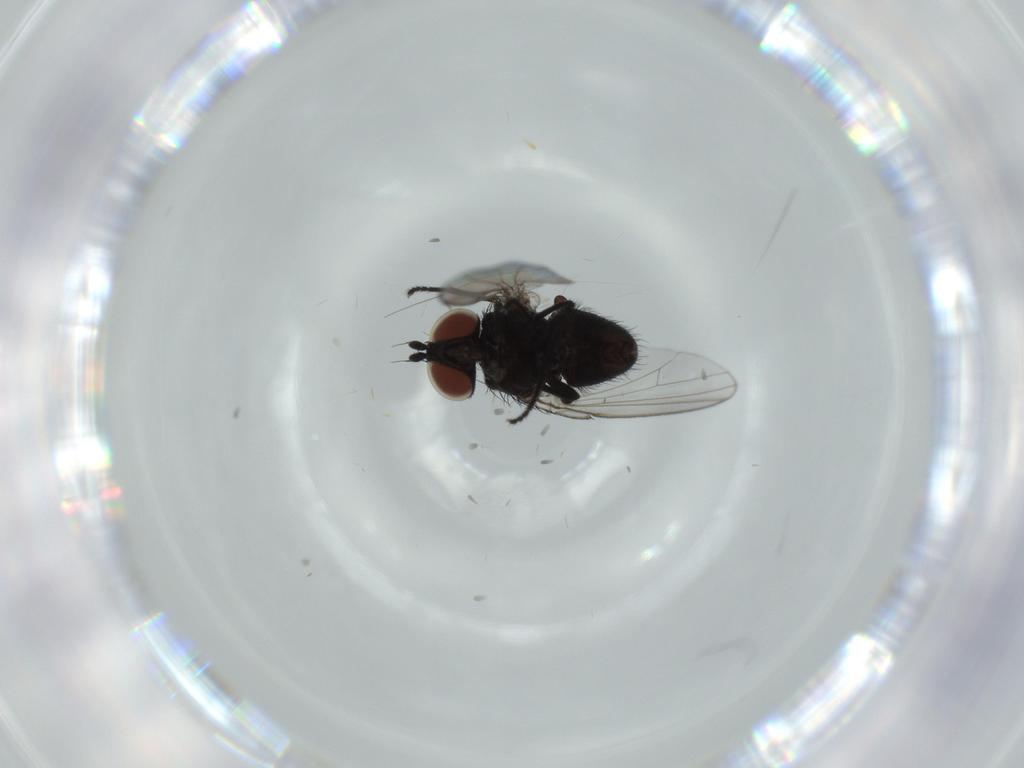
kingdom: Animalia
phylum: Arthropoda
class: Insecta
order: Diptera
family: Milichiidae
